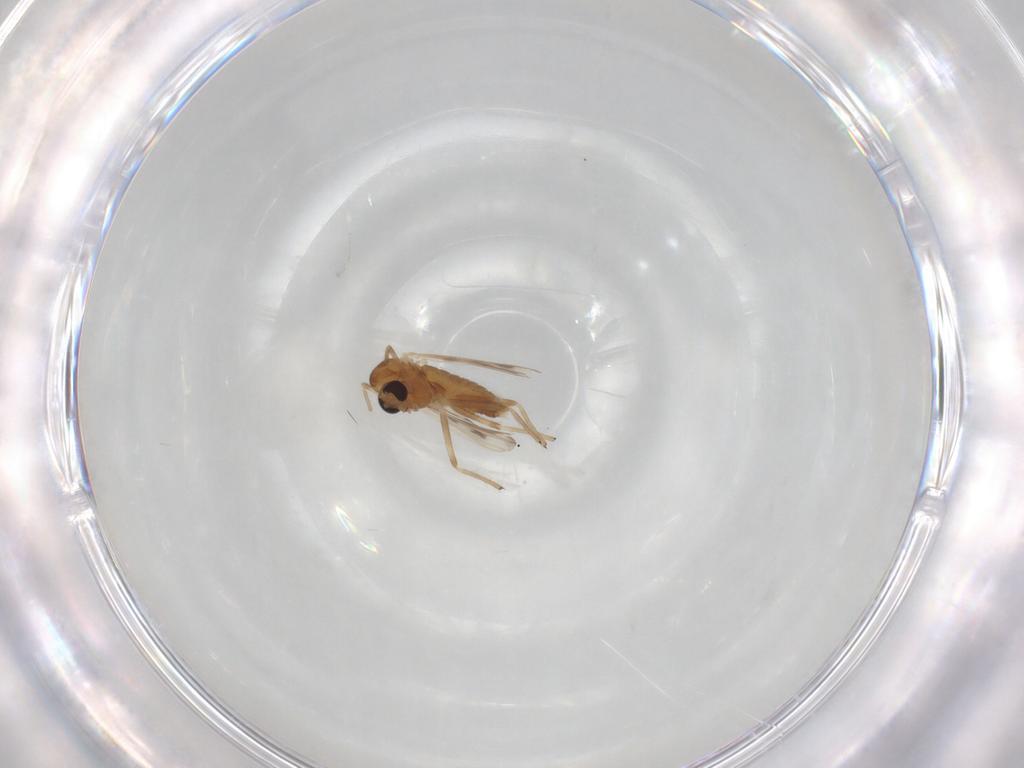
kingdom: Animalia
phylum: Arthropoda
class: Insecta
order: Diptera
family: Chironomidae
